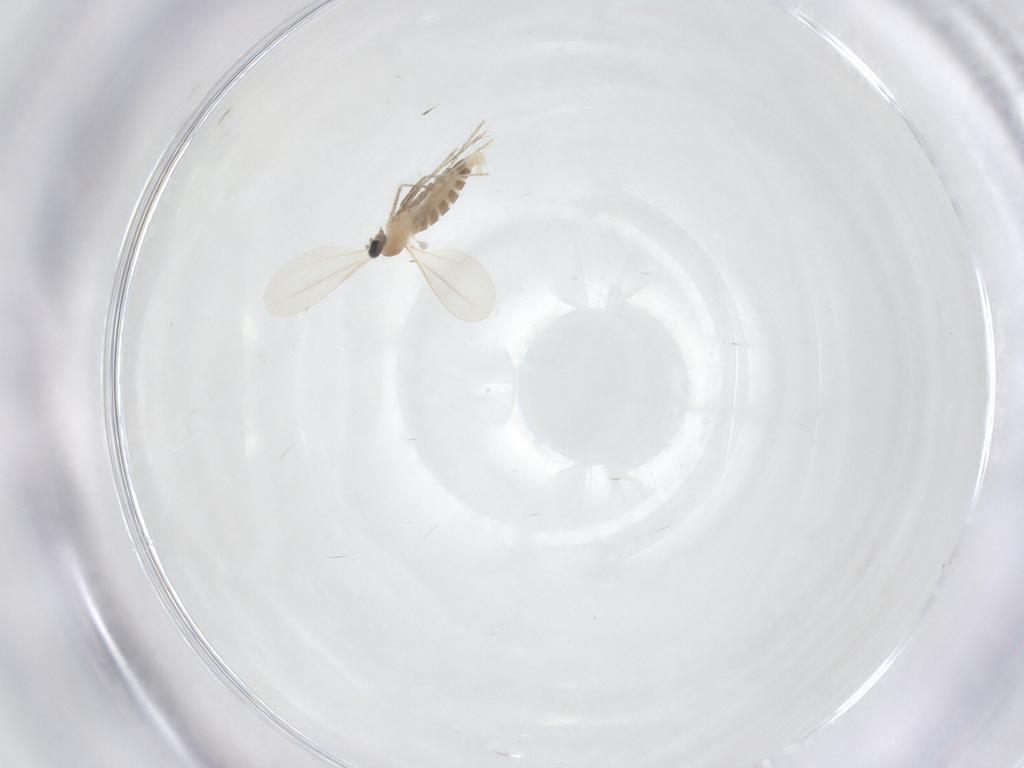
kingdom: Animalia
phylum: Arthropoda
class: Insecta
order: Diptera
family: Cecidomyiidae
